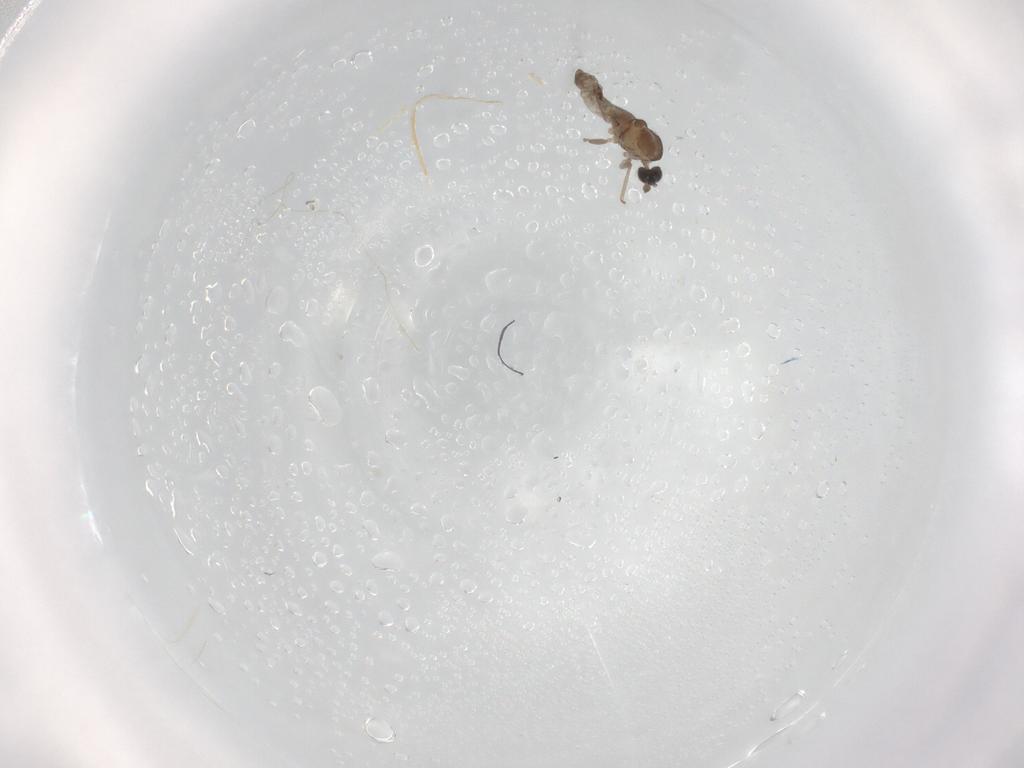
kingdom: Animalia
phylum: Arthropoda
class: Insecta
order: Diptera
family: Cecidomyiidae
